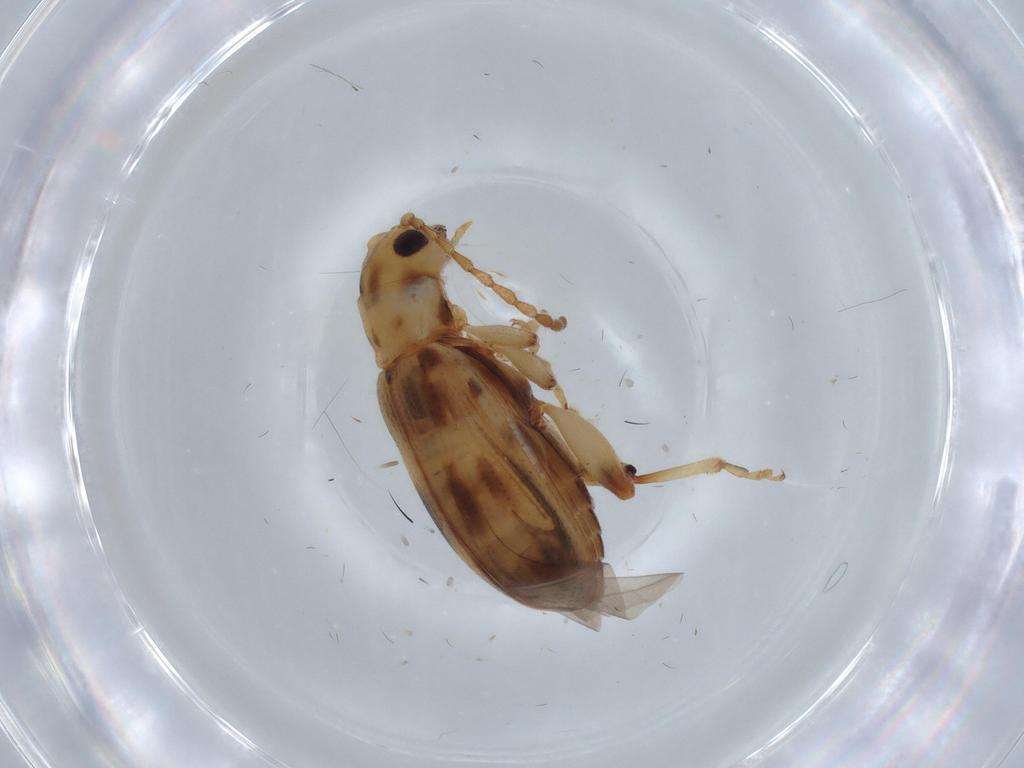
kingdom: Animalia
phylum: Arthropoda
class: Insecta
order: Coleoptera
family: Chrysomelidae
